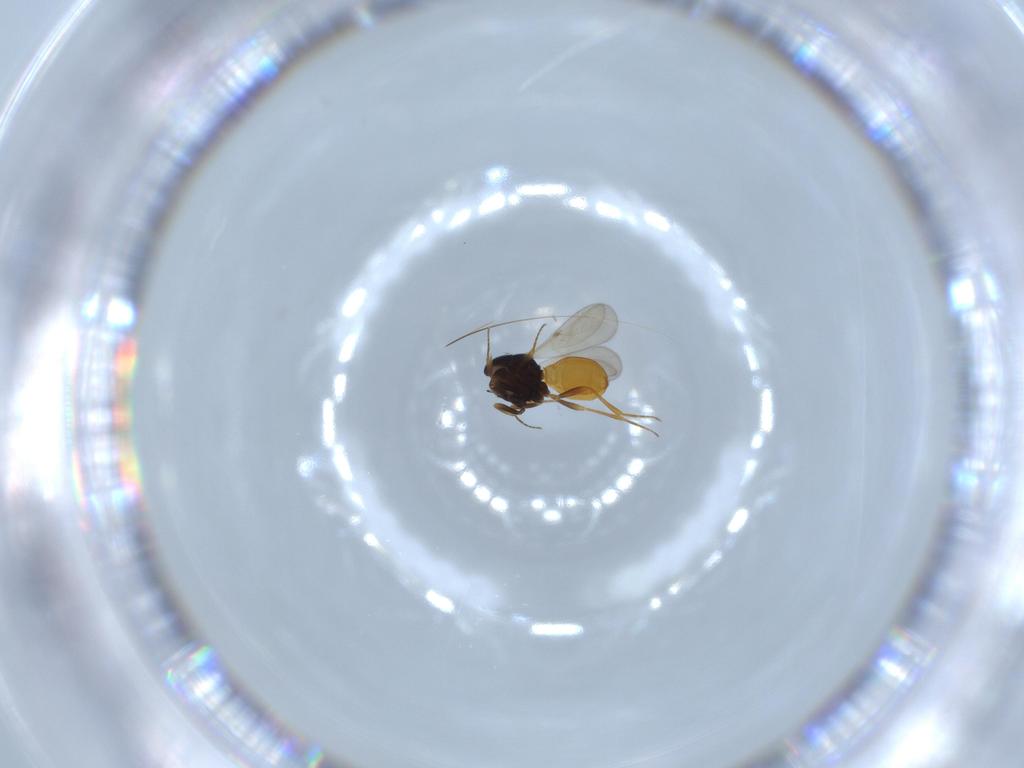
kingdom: Animalia
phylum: Arthropoda
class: Insecta
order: Hymenoptera
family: Scelionidae
